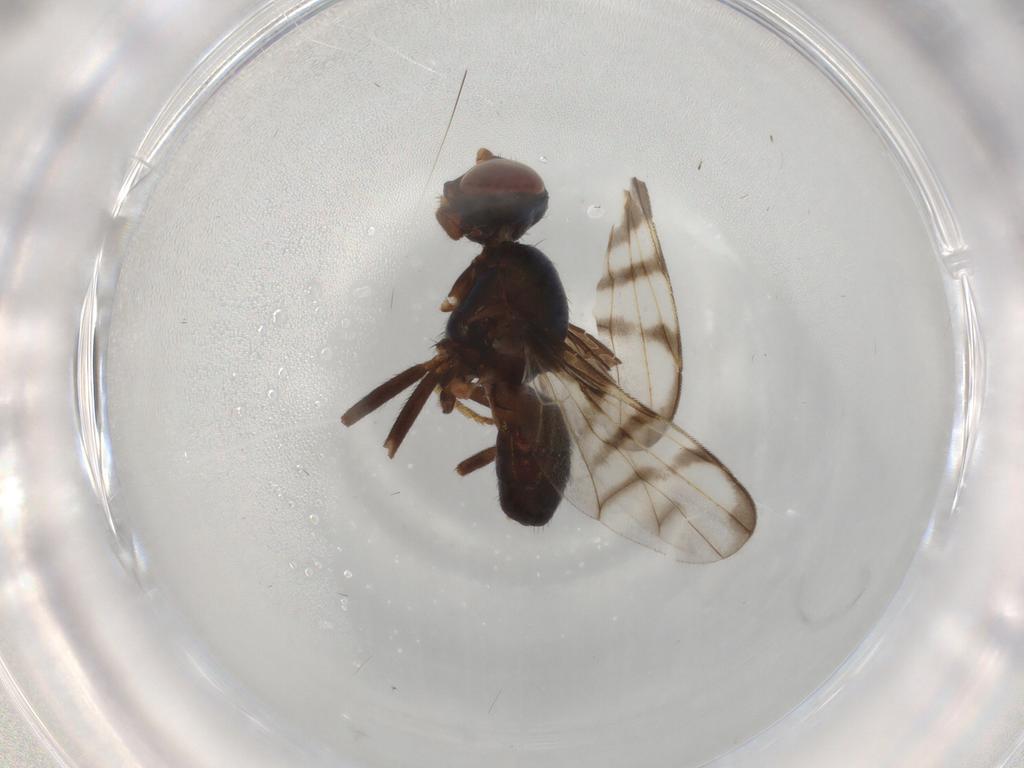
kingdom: Animalia
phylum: Arthropoda
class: Insecta
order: Diptera
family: Platystomatidae
